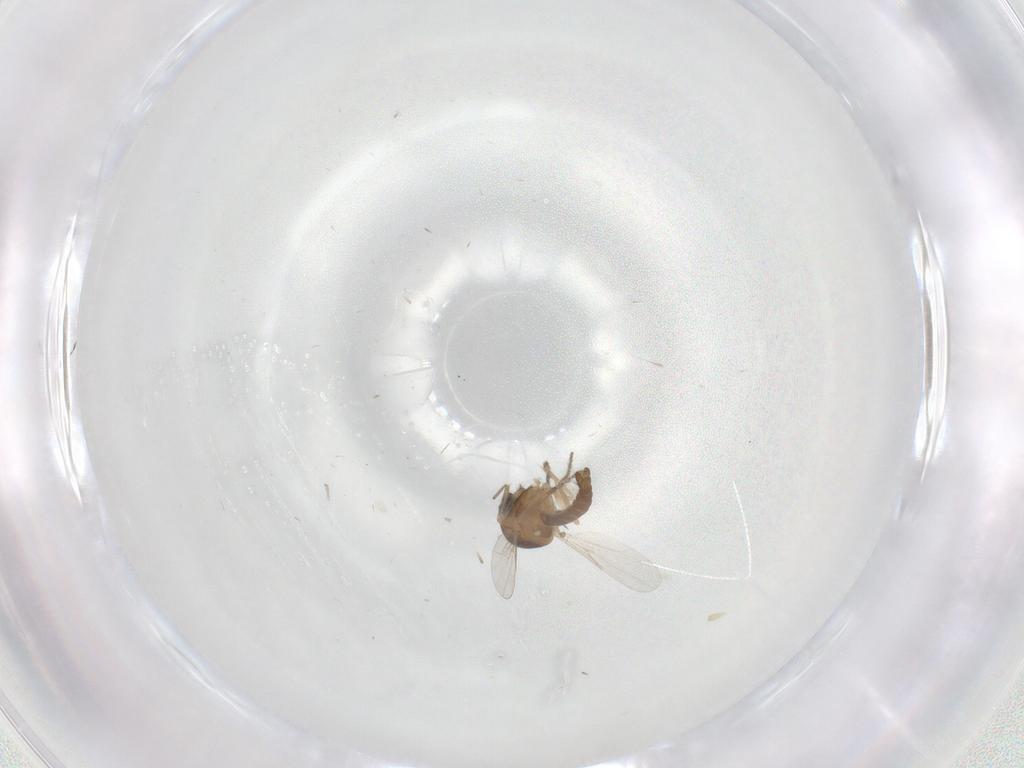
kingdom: Animalia
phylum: Arthropoda
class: Insecta
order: Diptera
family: Ceratopogonidae
